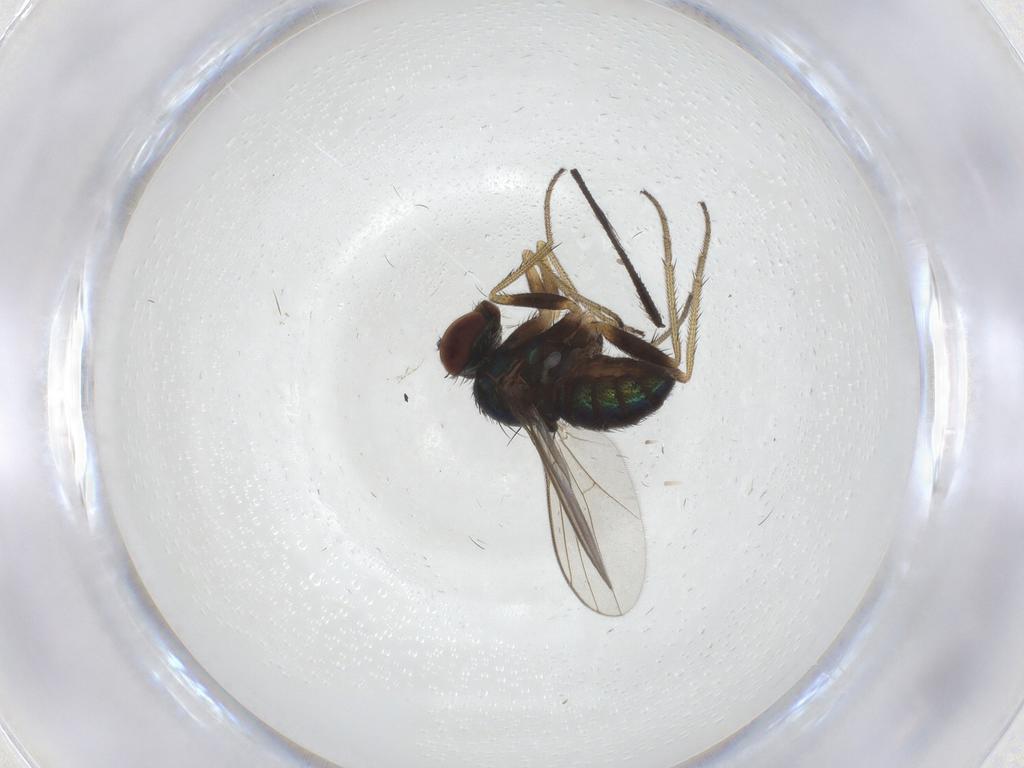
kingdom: Animalia
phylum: Arthropoda
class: Insecta
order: Diptera
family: Dolichopodidae
